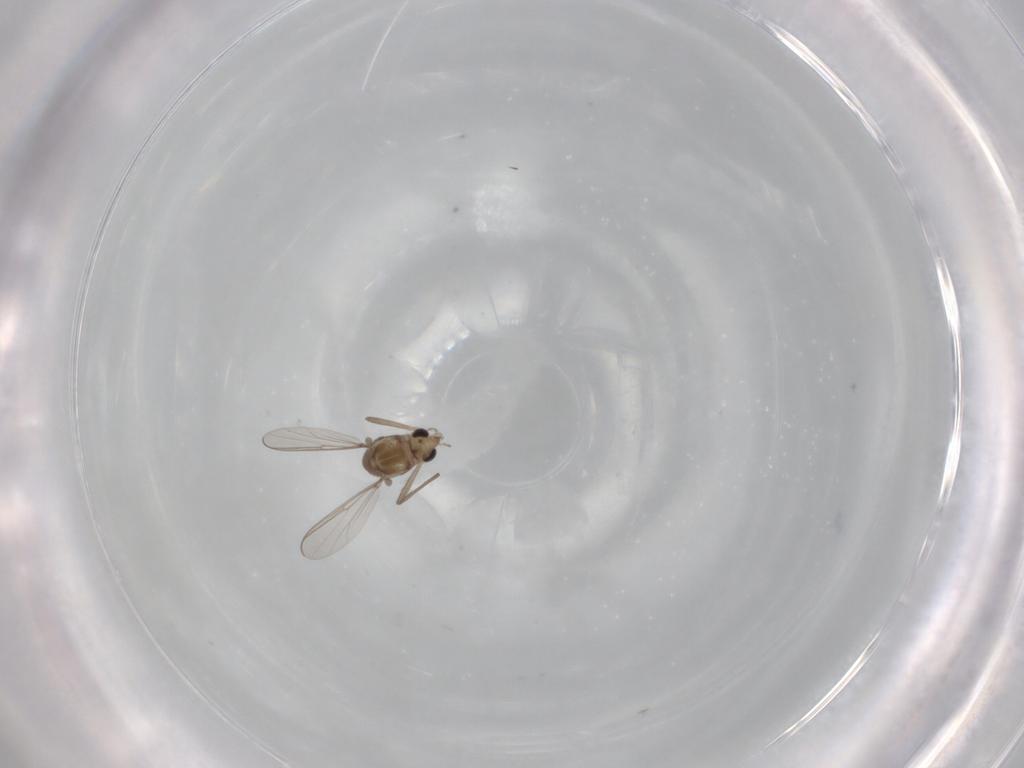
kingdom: Animalia
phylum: Arthropoda
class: Insecta
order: Diptera
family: Chironomidae
